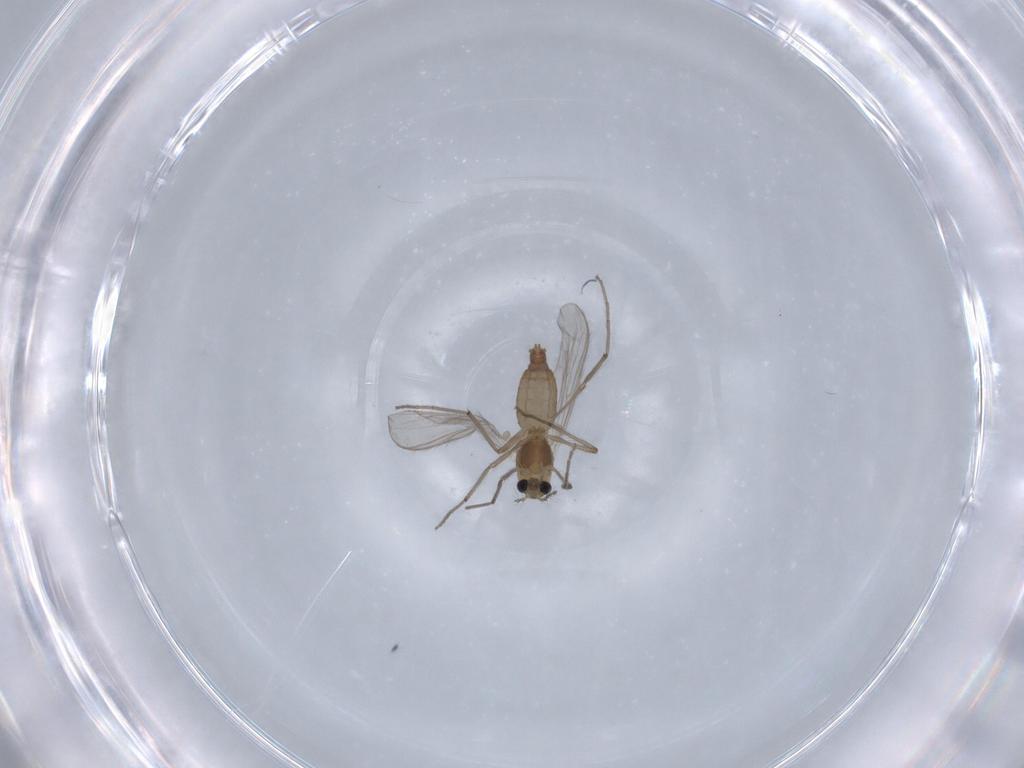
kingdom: Animalia
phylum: Arthropoda
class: Insecta
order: Diptera
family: Chironomidae
